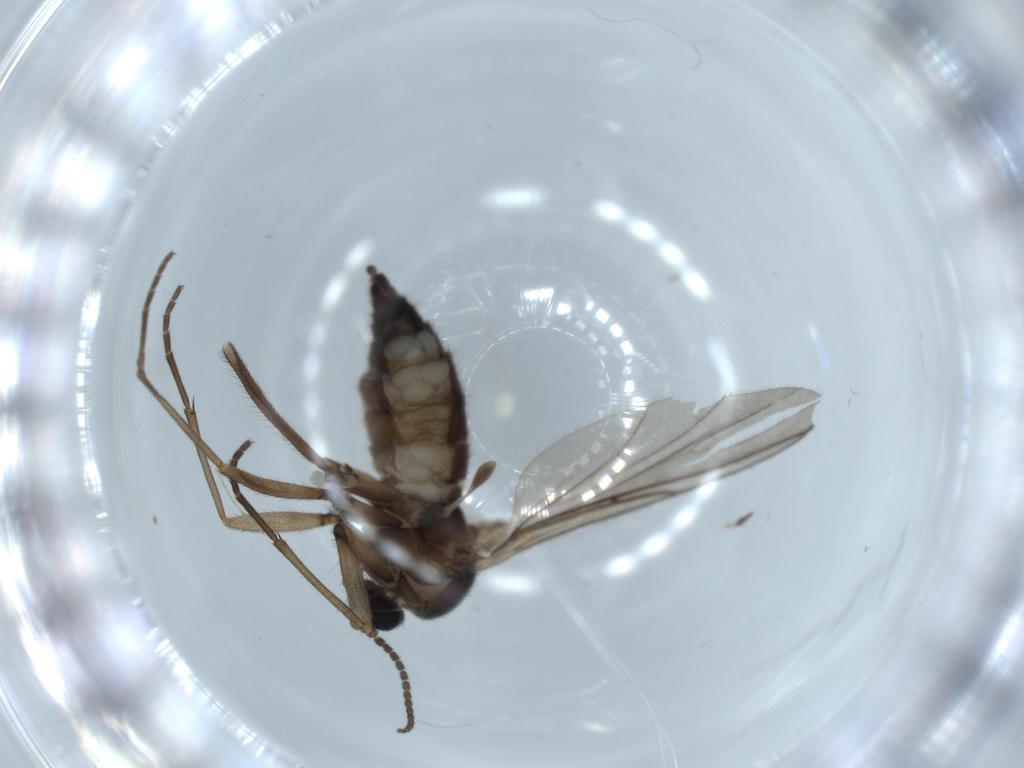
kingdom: Animalia
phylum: Arthropoda
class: Insecta
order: Diptera
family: Sciaridae
